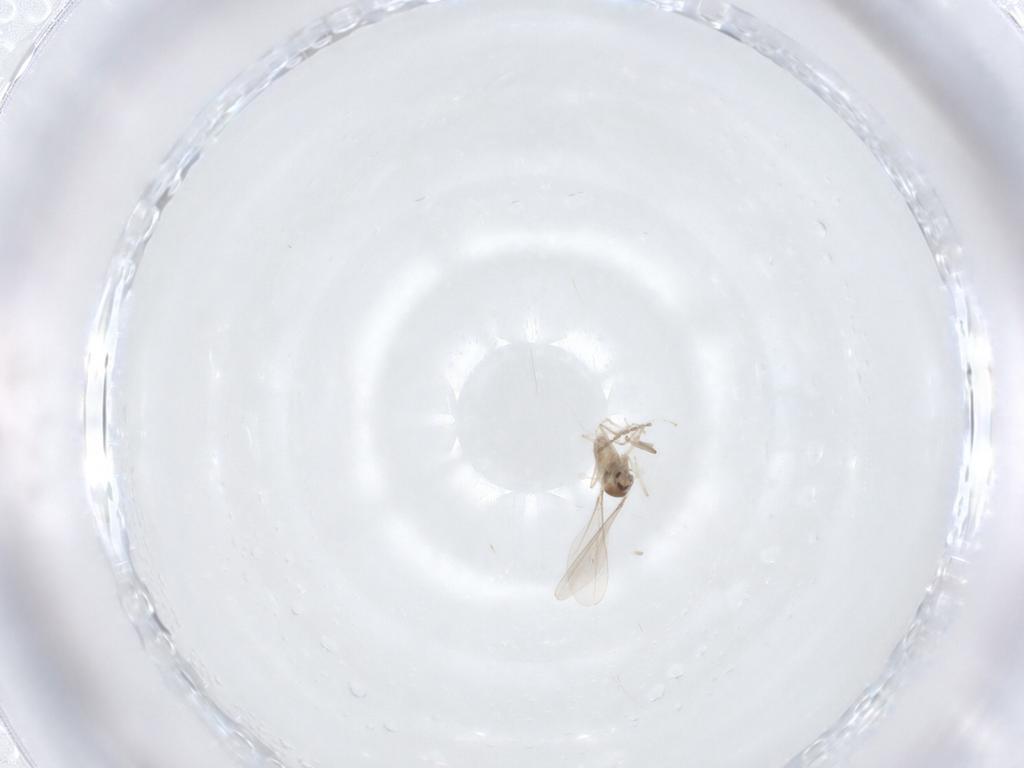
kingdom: Animalia
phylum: Arthropoda
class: Insecta
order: Diptera
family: Cecidomyiidae
